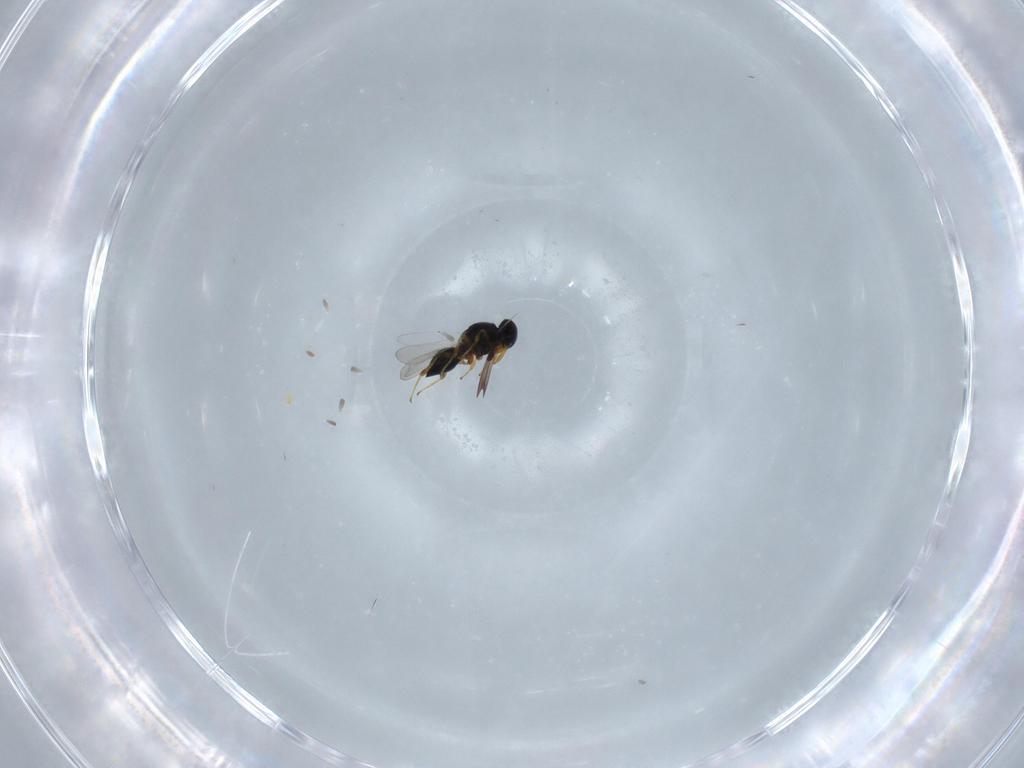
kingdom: Animalia
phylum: Arthropoda
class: Insecta
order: Hymenoptera
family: Platygastridae
